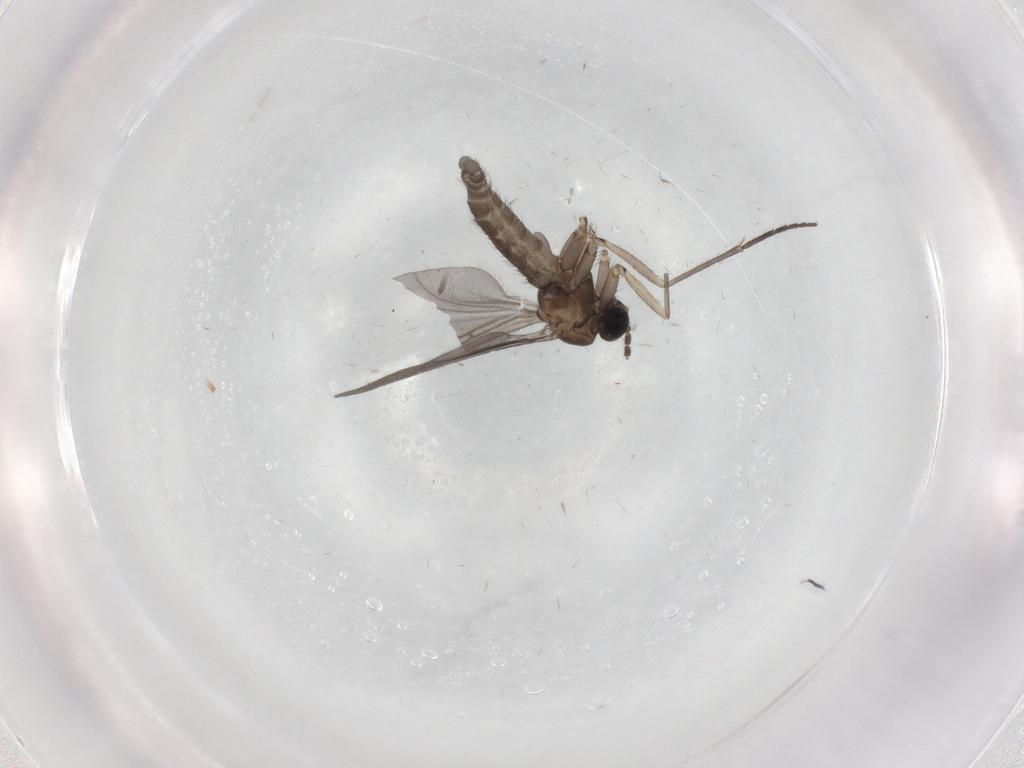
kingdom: Animalia
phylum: Arthropoda
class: Insecta
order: Diptera
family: Sciaridae
